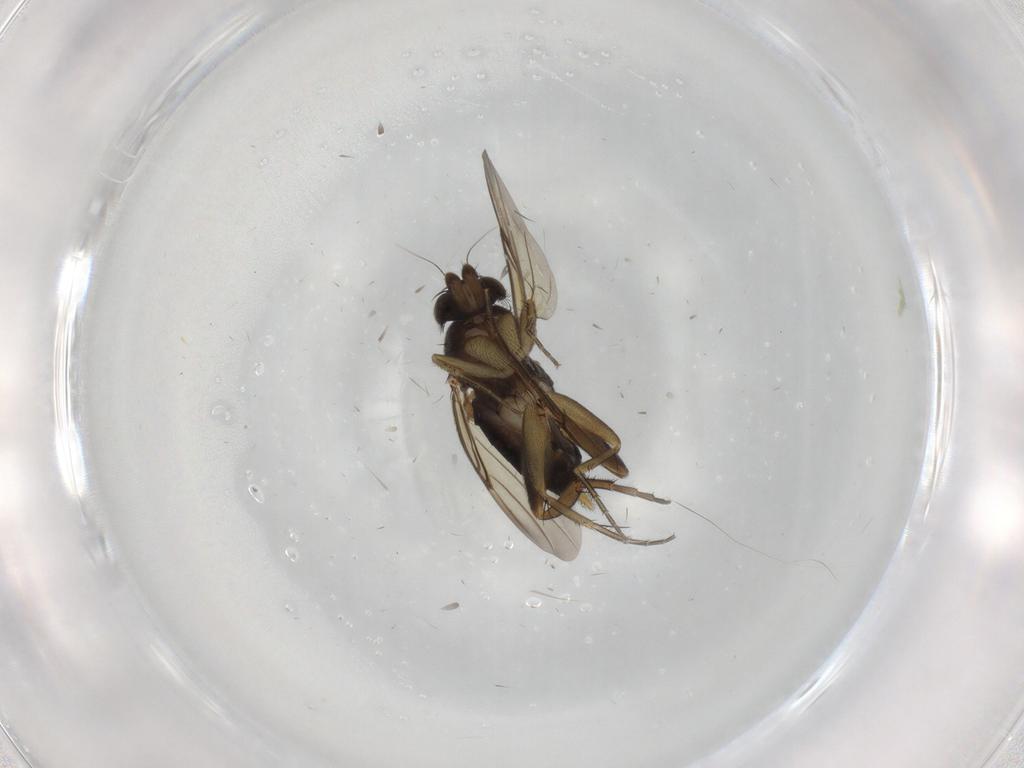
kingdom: Animalia
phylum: Arthropoda
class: Insecta
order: Diptera
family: Phoridae
